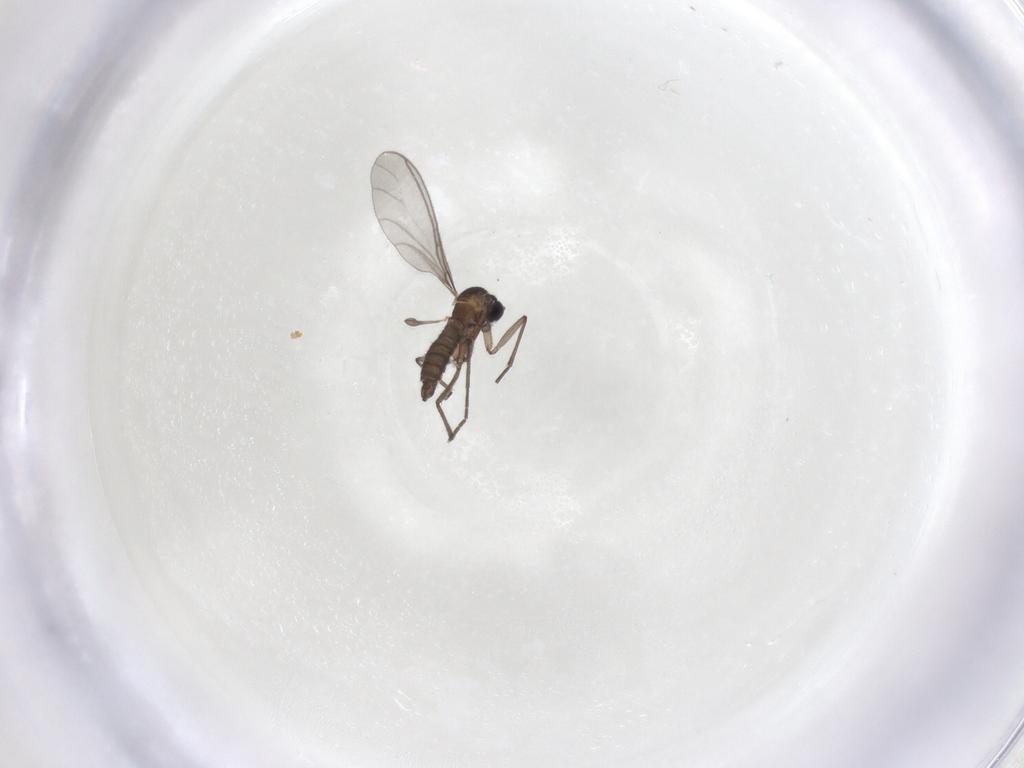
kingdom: Animalia
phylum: Arthropoda
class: Insecta
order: Diptera
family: Sciaridae
